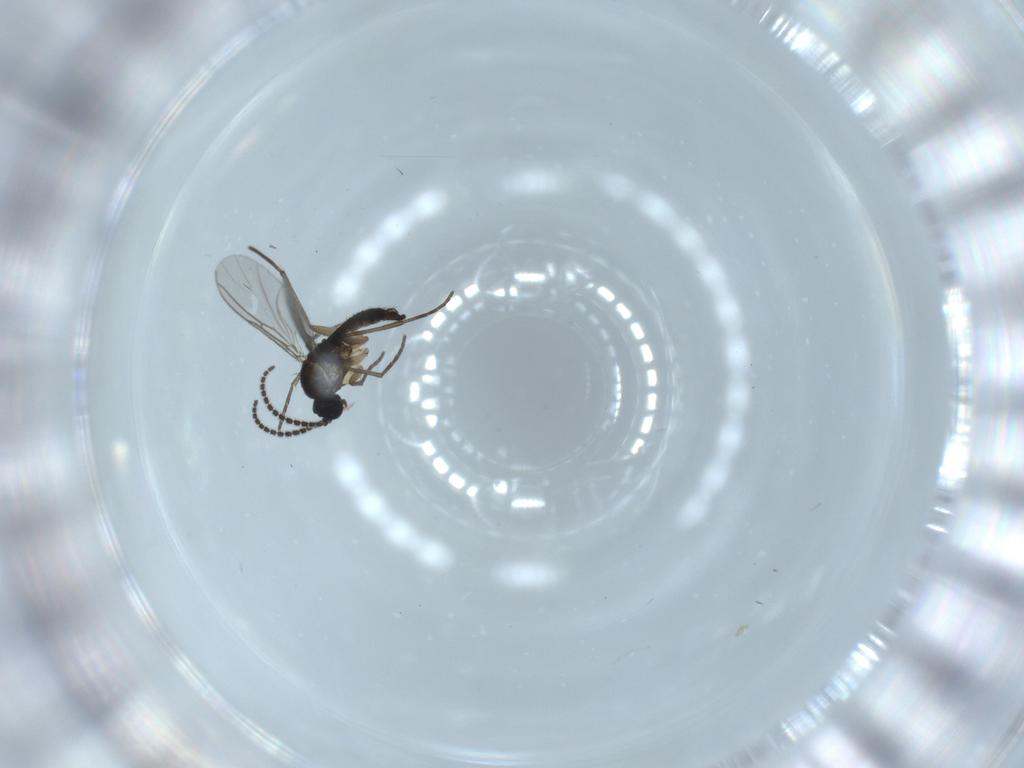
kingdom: Animalia
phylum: Arthropoda
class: Insecta
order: Diptera
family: Sciaridae
